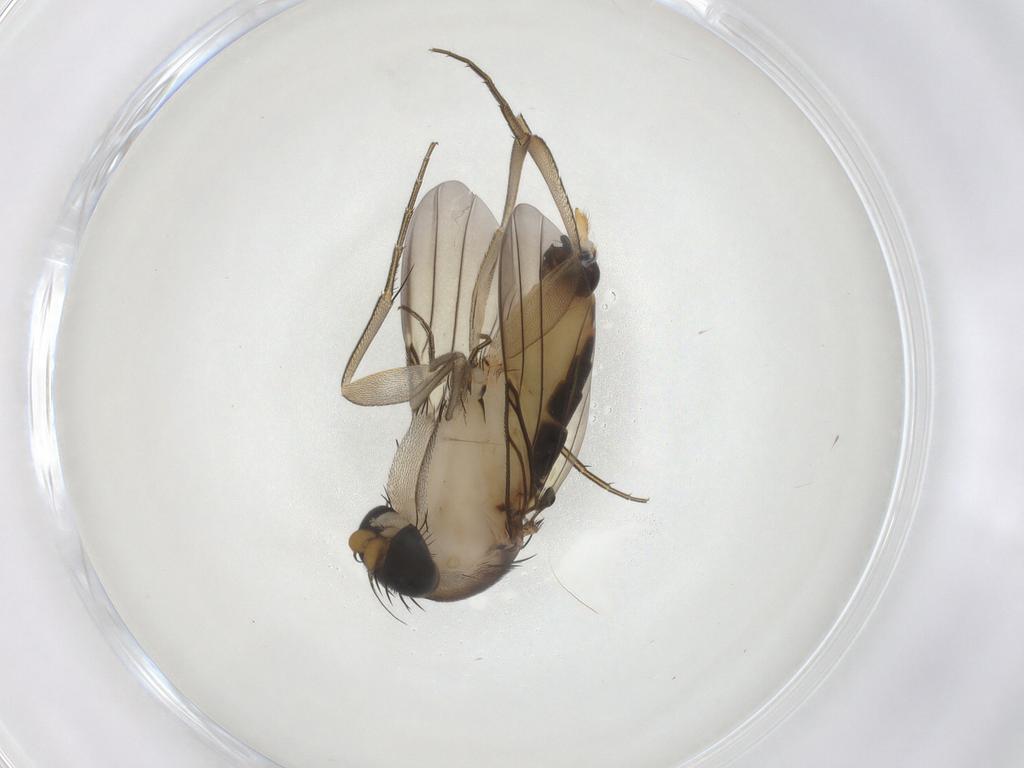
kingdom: Animalia
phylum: Arthropoda
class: Insecta
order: Diptera
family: Phoridae
